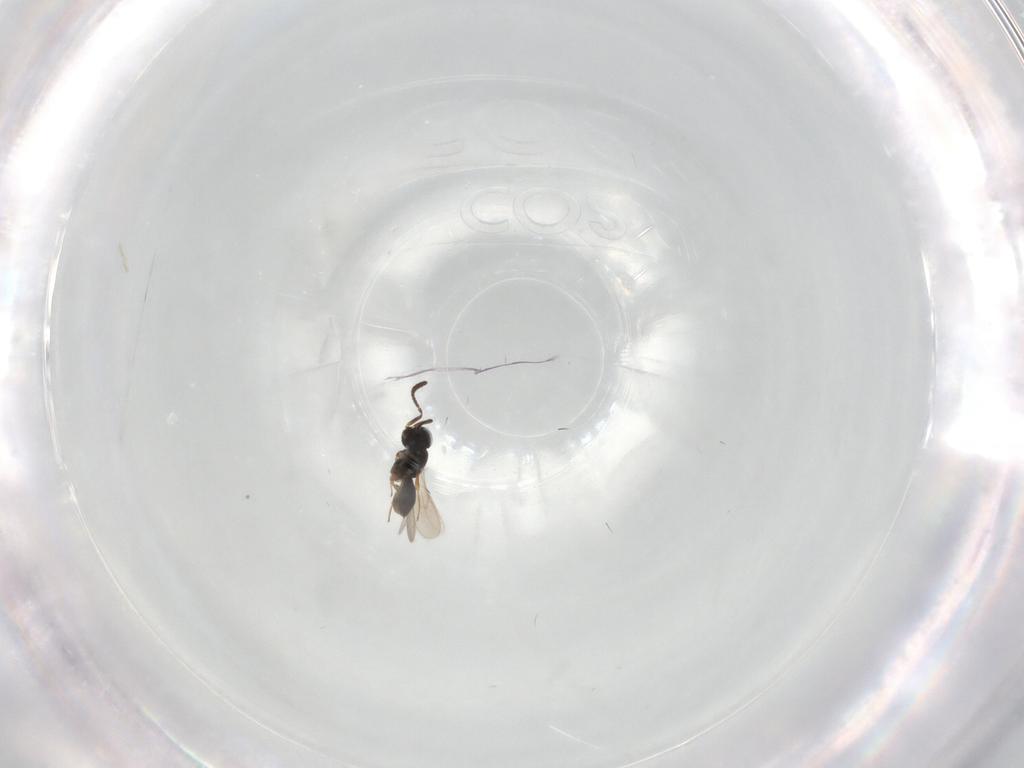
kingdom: Animalia
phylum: Arthropoda
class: Insecta
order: Hymenoptera
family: Scelionidae
